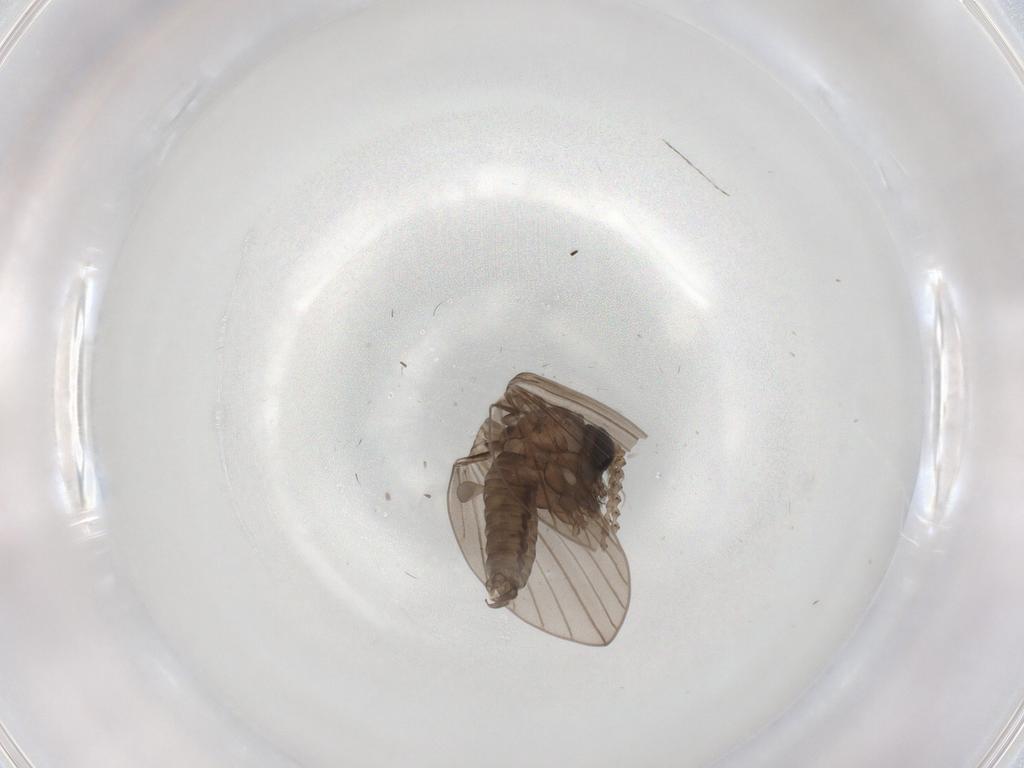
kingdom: Animalia
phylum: Arthropoda
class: Insecta
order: Diptera
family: Cecidomyiidae
